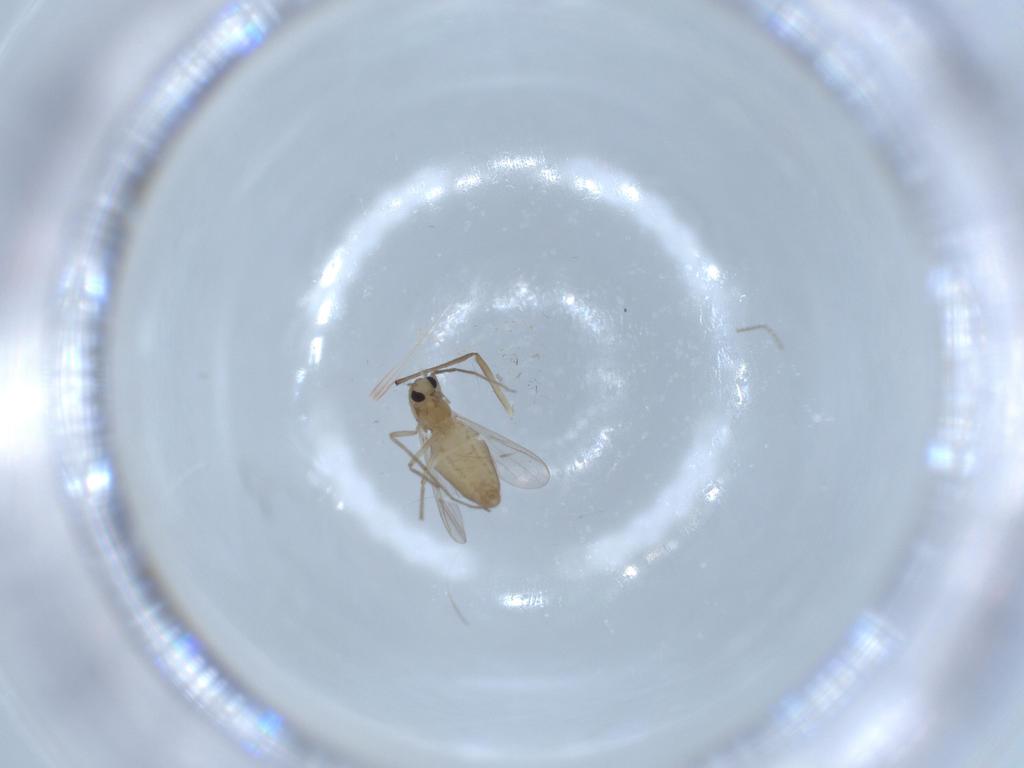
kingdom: Animalia
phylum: Arthropoda
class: Insecta
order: Diptera
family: Chironomidae
